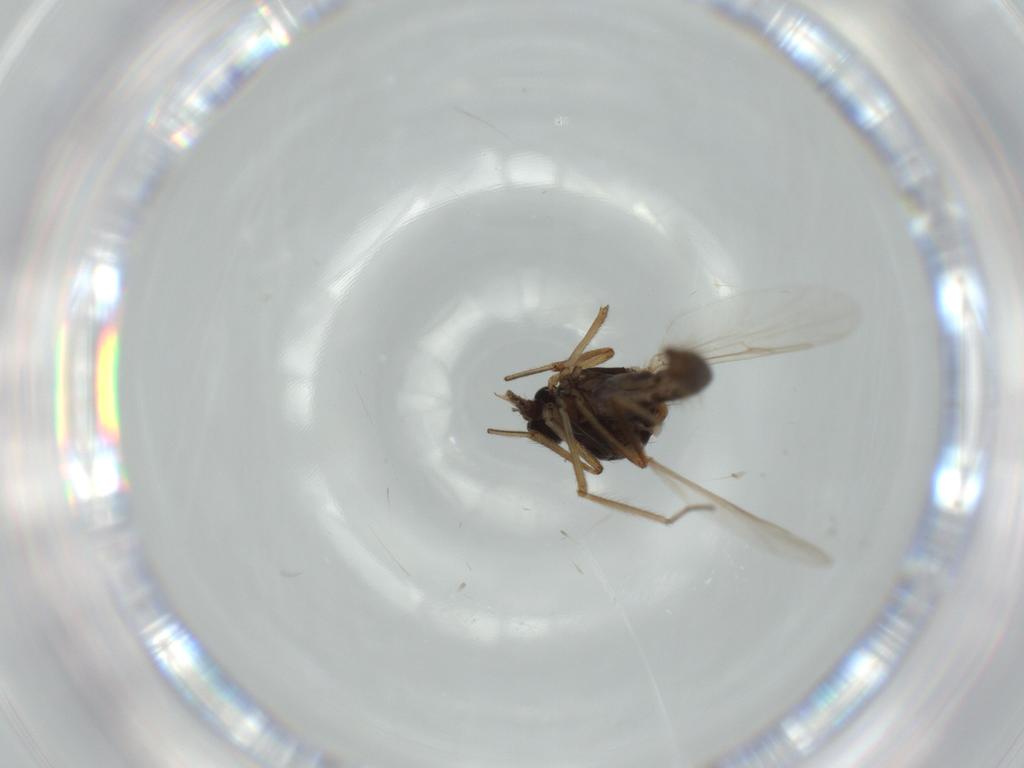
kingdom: Animalia
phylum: Arthropoda
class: Insecta
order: Diptera
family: Ceratopogonidae
